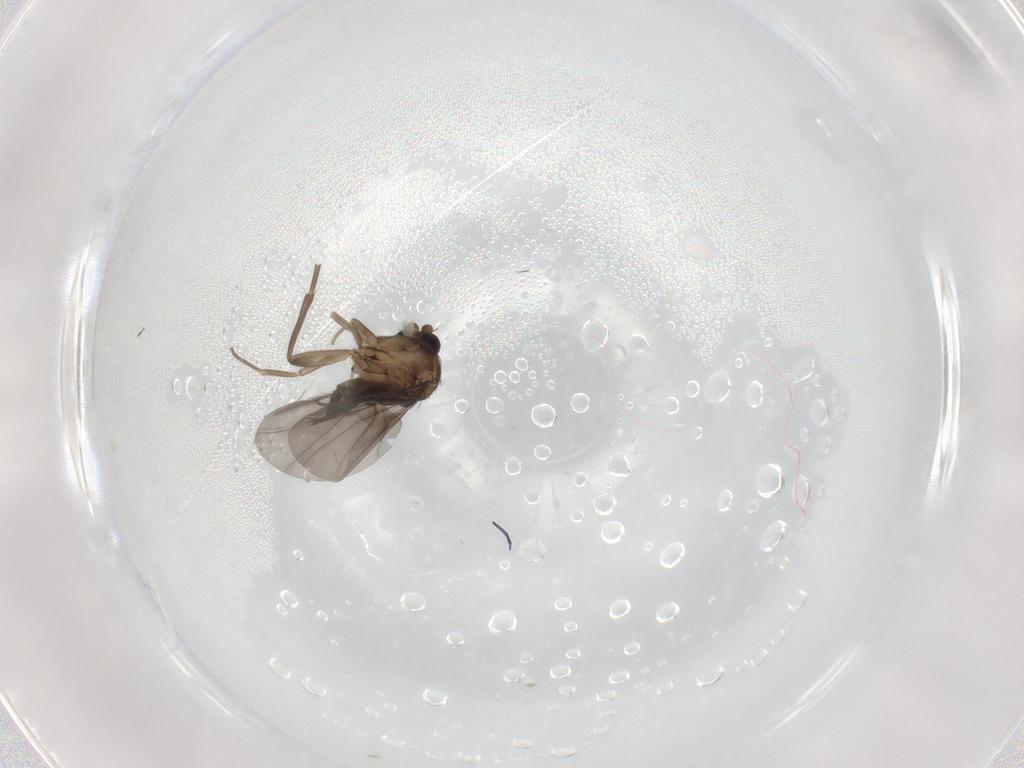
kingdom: Animalia
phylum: Arthropoda
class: Insecta
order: Diptera
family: Phoridae
